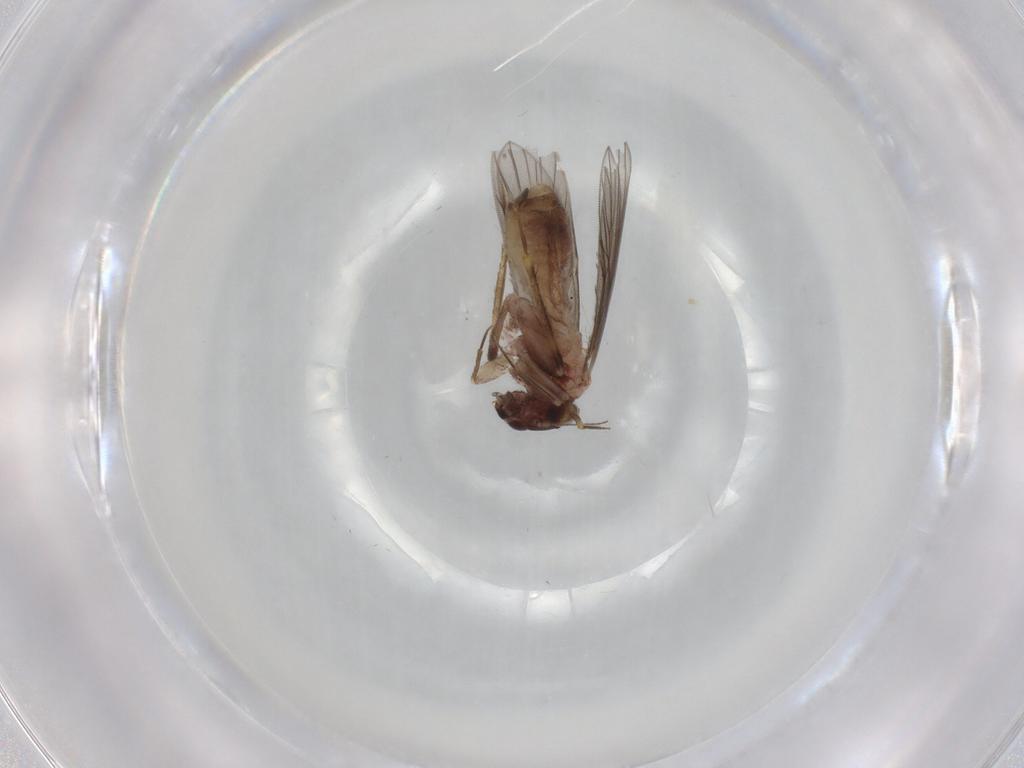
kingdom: Animalia
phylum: Arthropoda
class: Insecta
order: Psocodea
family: Lepidopsocidae
